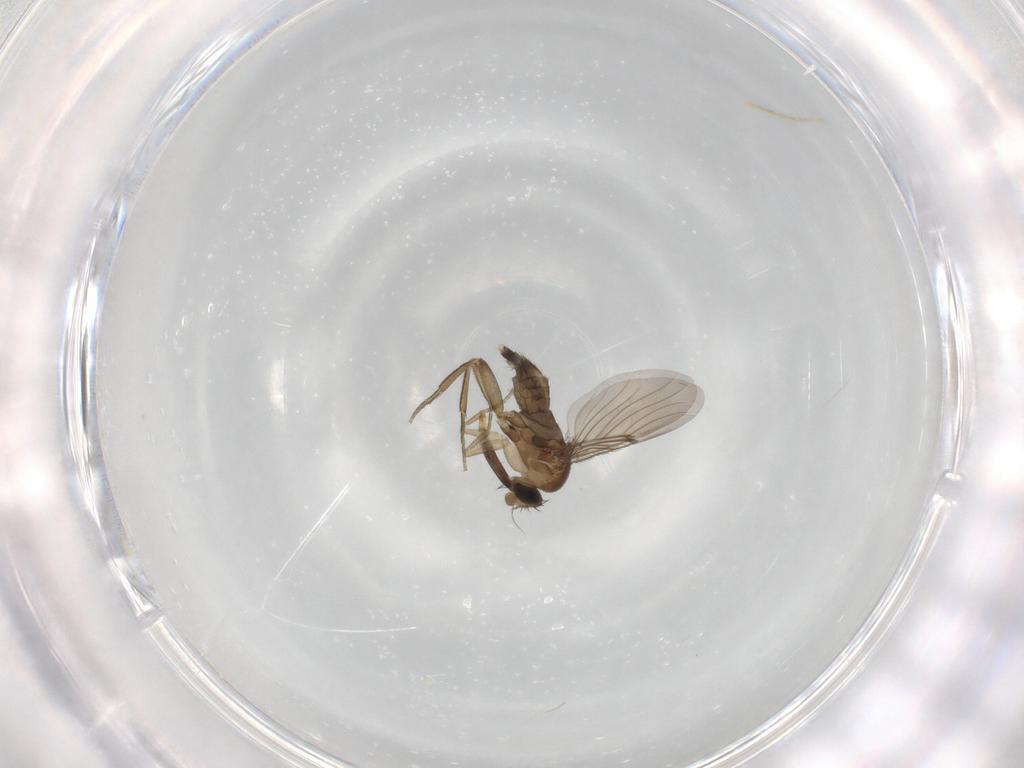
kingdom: Animalia
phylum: Arthropoda
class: Insecta
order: Diptera
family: Phoridae
